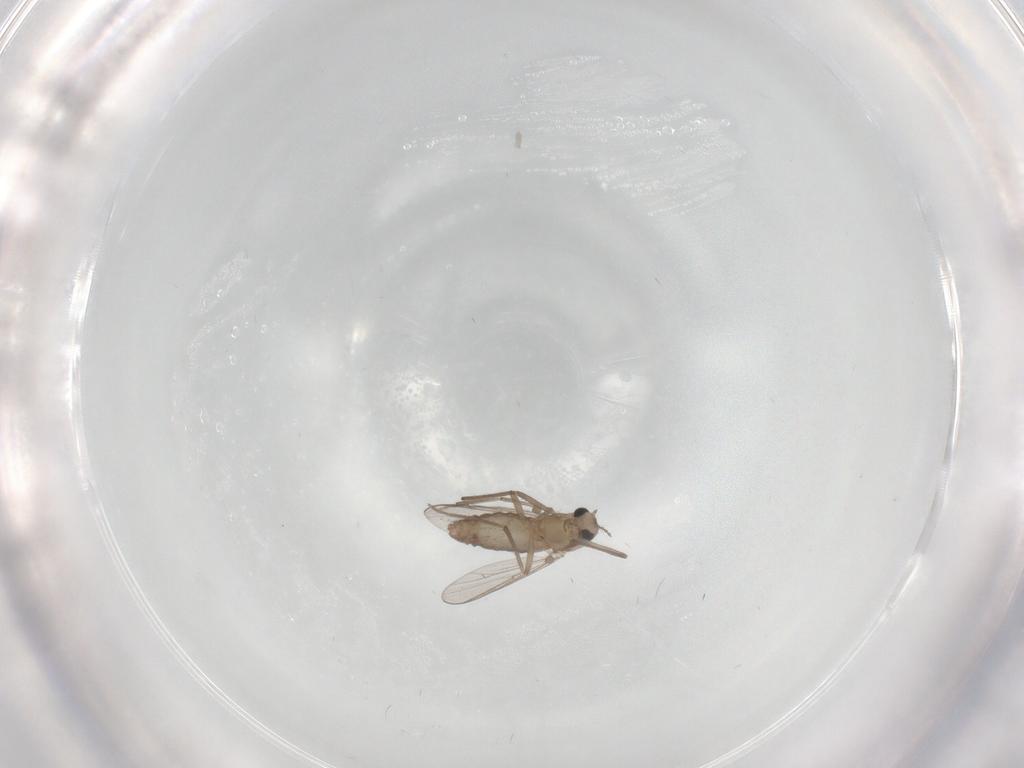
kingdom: Animalia
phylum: Arthropoda
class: Insecta
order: Diptera
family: Chironomidae
